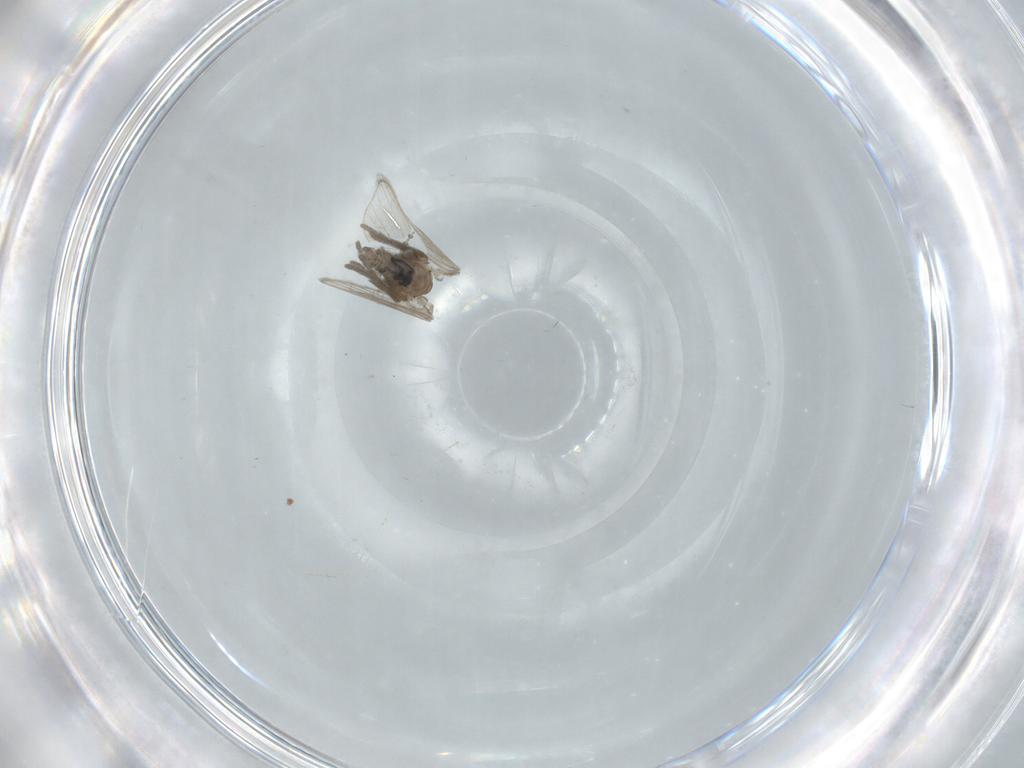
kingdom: Animalia
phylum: Arthropoda
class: Insecta
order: Diptera
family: Psychodidae
